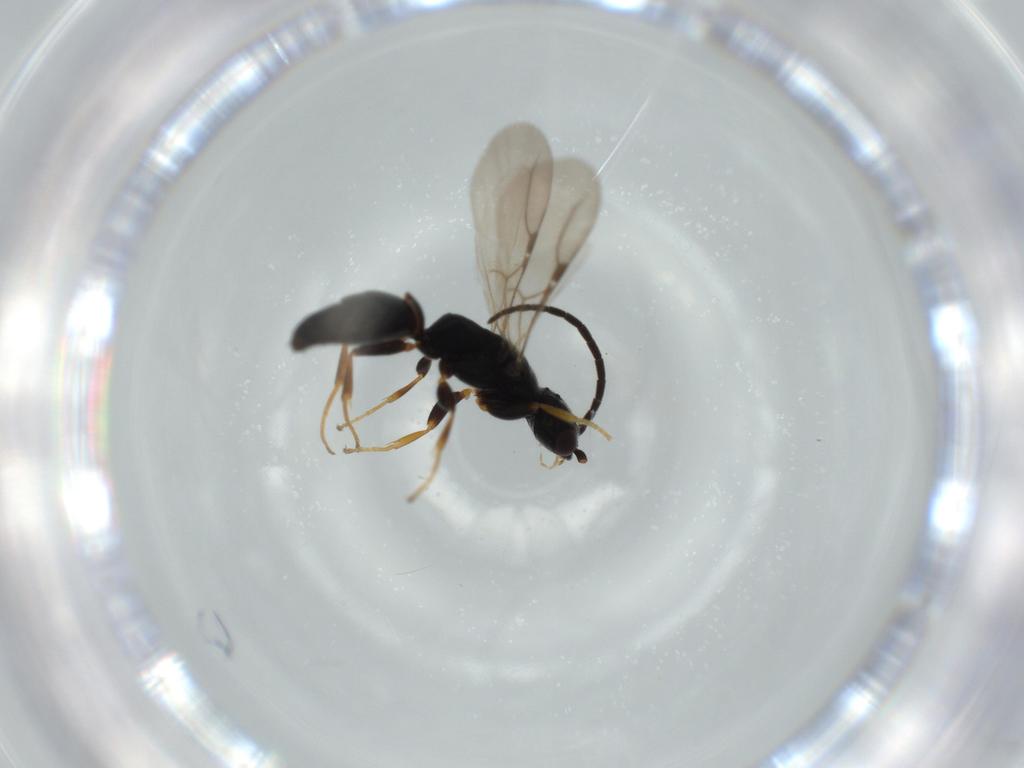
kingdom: Animalia
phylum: Arthropoda
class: Insecta
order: Hymenoptera
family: Bethylidae
